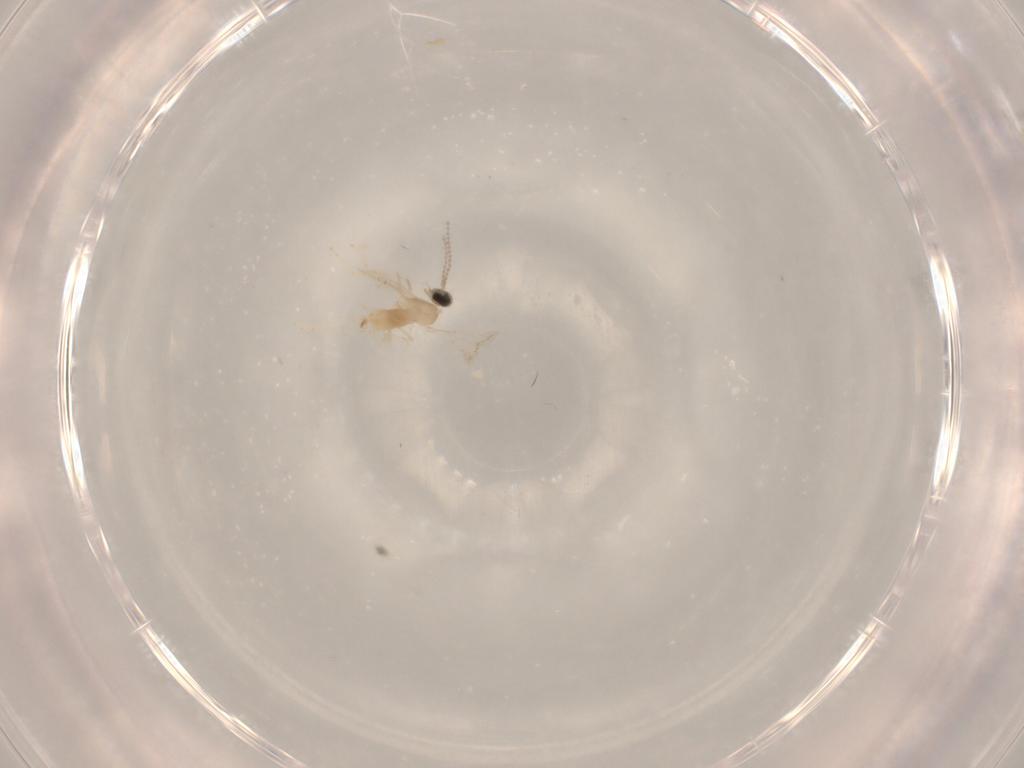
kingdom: Animalia
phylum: Arthropoda
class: Insecta
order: Diptera
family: Cecidomyiidae
